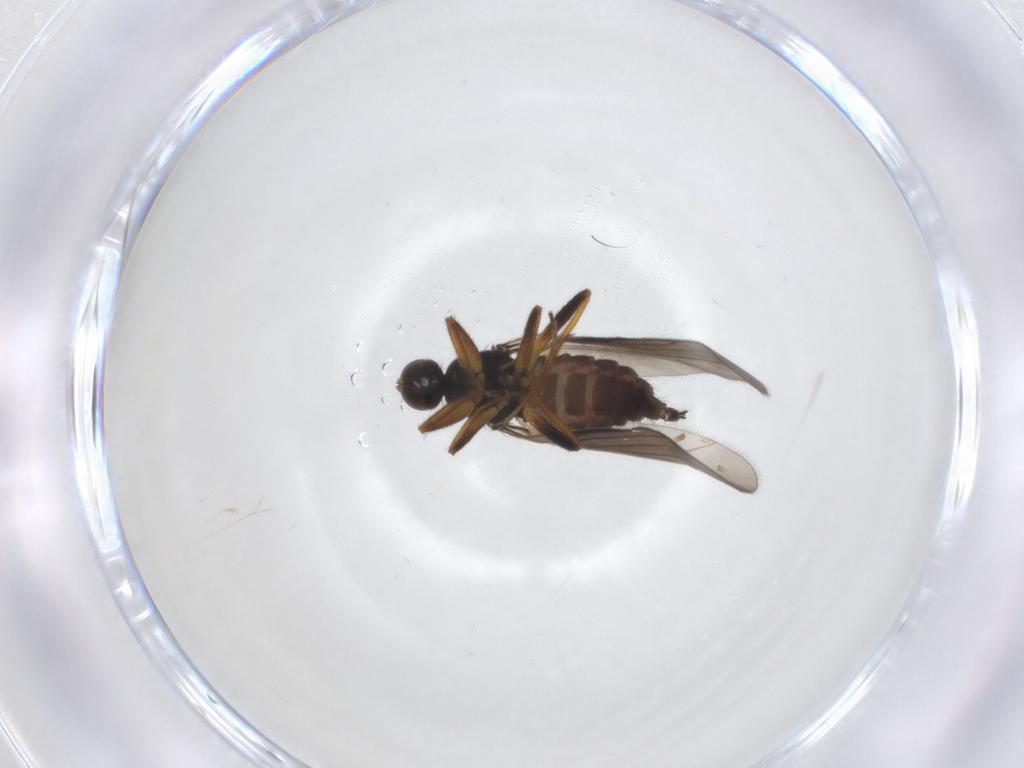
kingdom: Animalia
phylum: Arthropoda
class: Insecta
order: Diptera
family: Hybotidae
